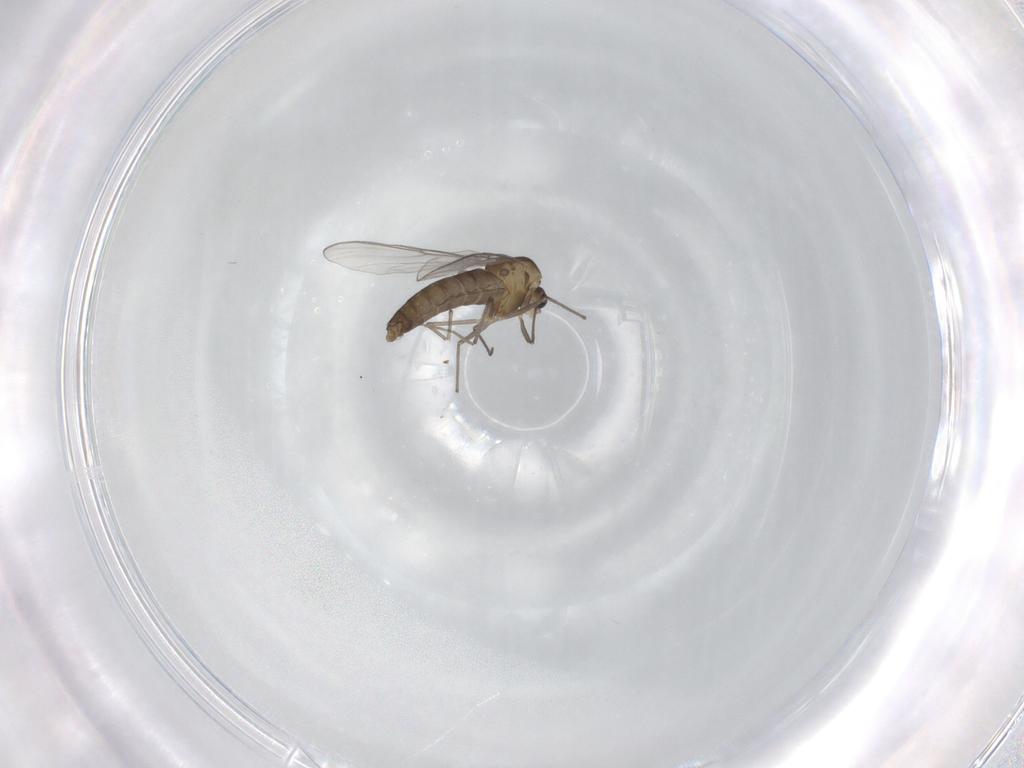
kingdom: Animalia
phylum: Arthropoda
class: Insecta
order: Diptera
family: Chironomidae
